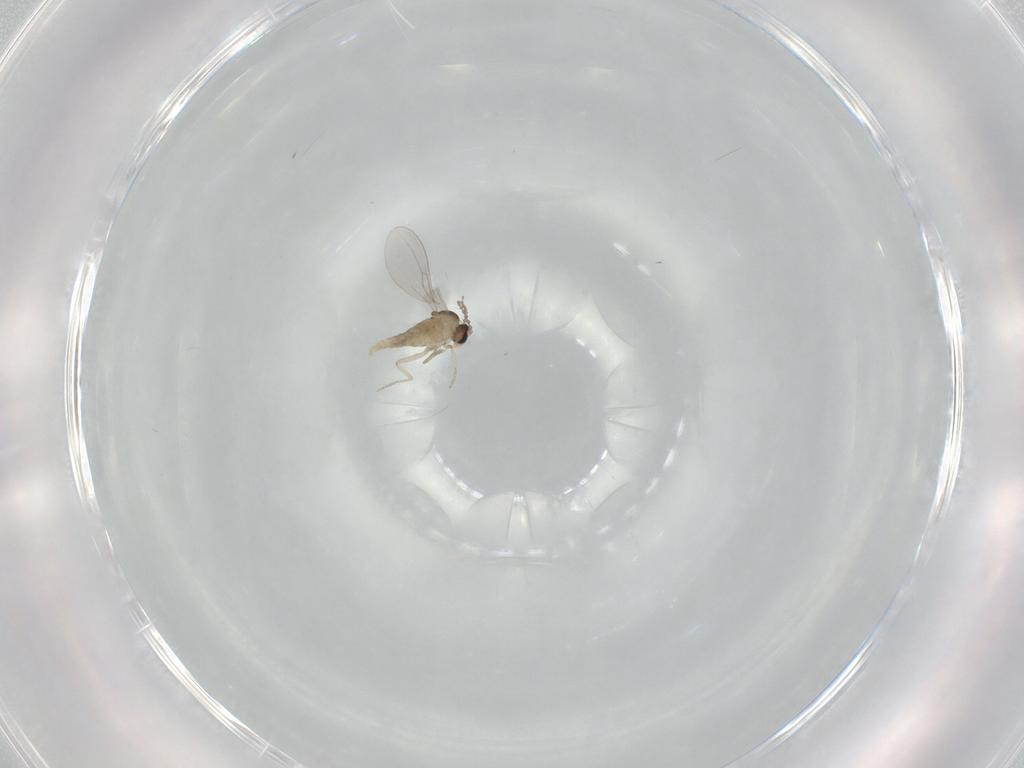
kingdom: Animalia
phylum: Arthropoda
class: Insecta
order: Diptera
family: Cecidomyiidae
